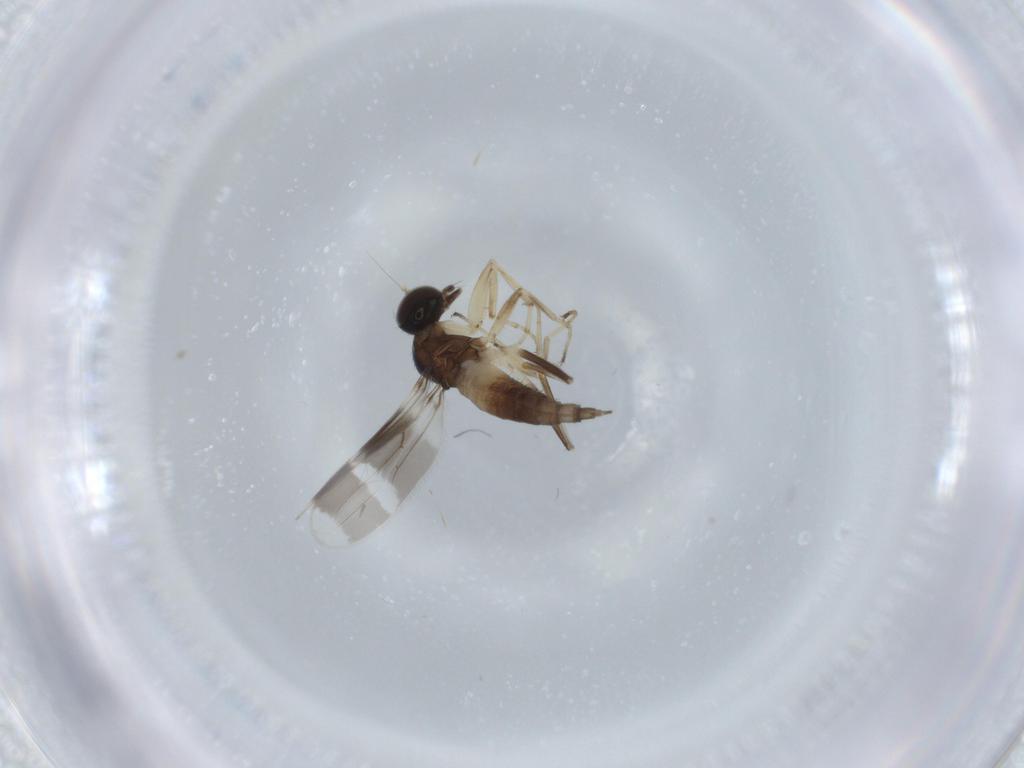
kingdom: Animalia
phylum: Arthropoda
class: Insecta
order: Diptera
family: Hybotidae
